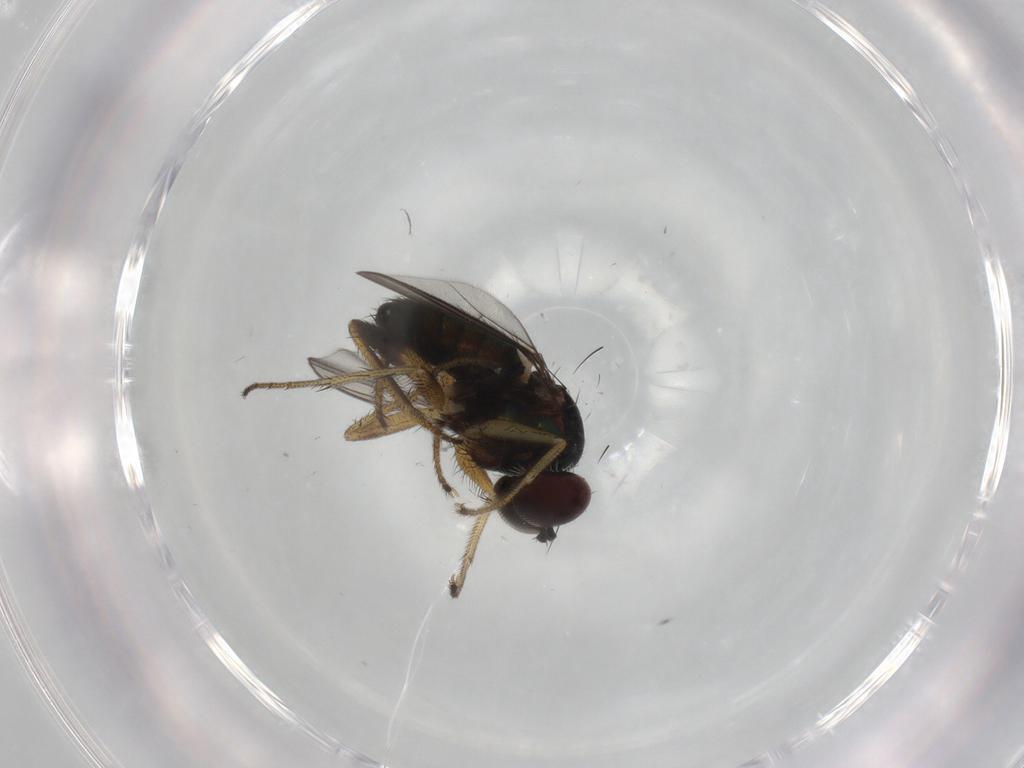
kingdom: Animalia
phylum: Arthropoda
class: Insecta
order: Diptera
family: Dolichopodidae
